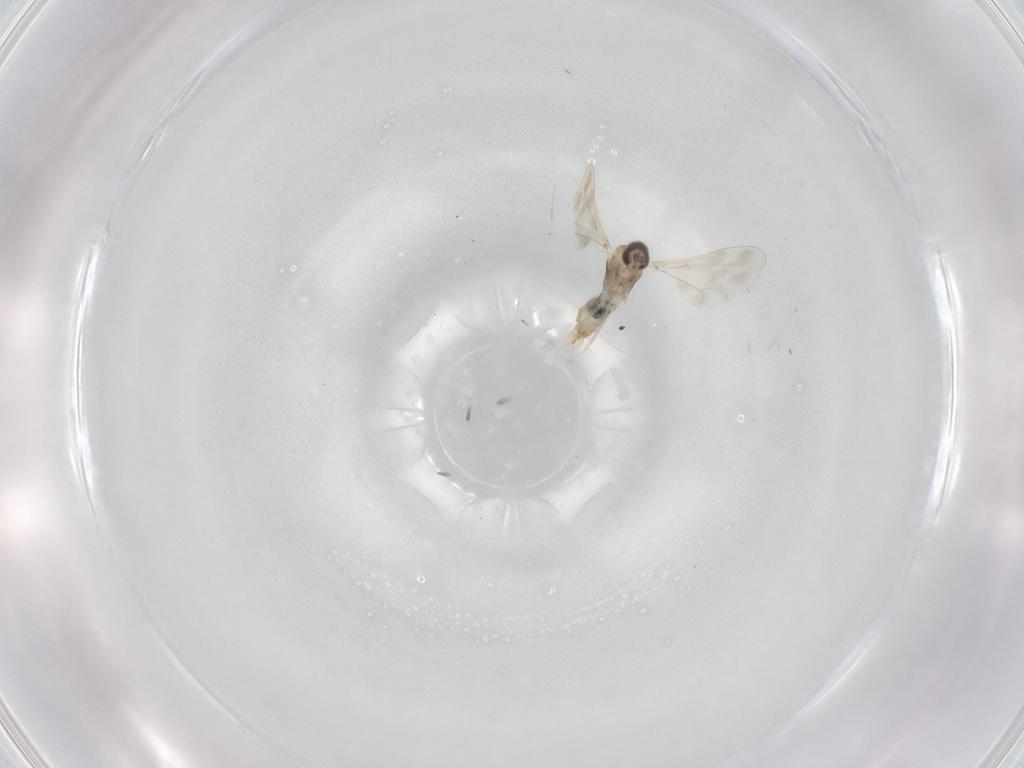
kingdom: Animalia
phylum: Arthropoda
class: Insecta
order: Diptera
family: Cecidomyiidae
